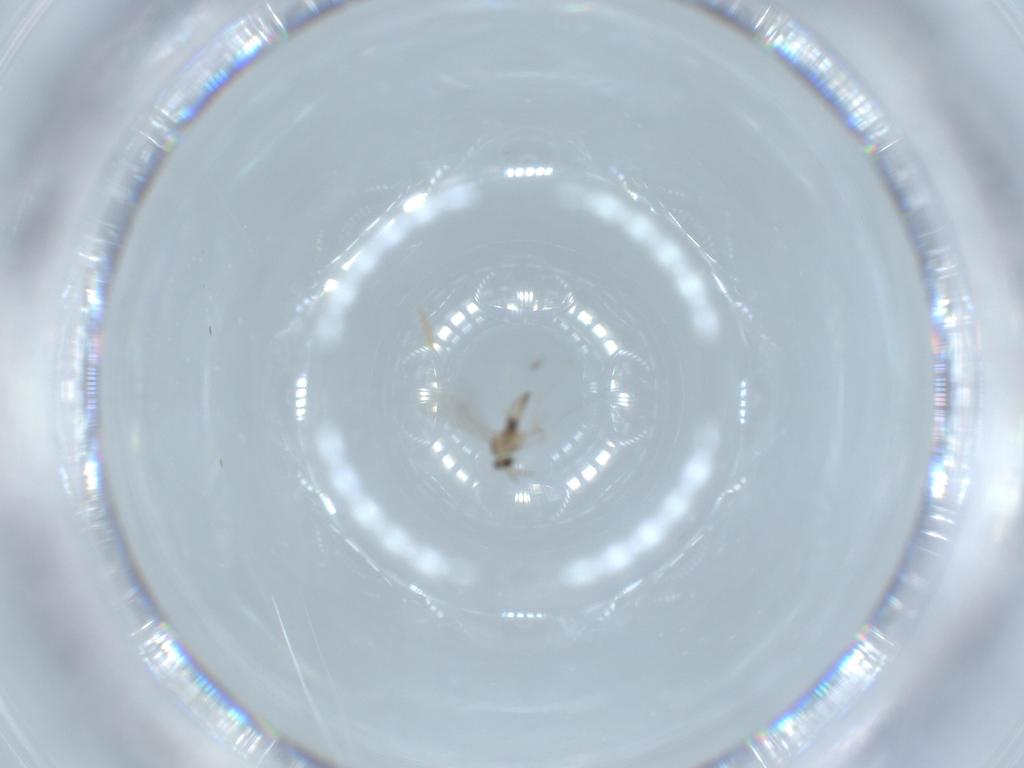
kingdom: Animalia
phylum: Arthropoda
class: Insecta
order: Diptera
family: Cecidomyiidae
